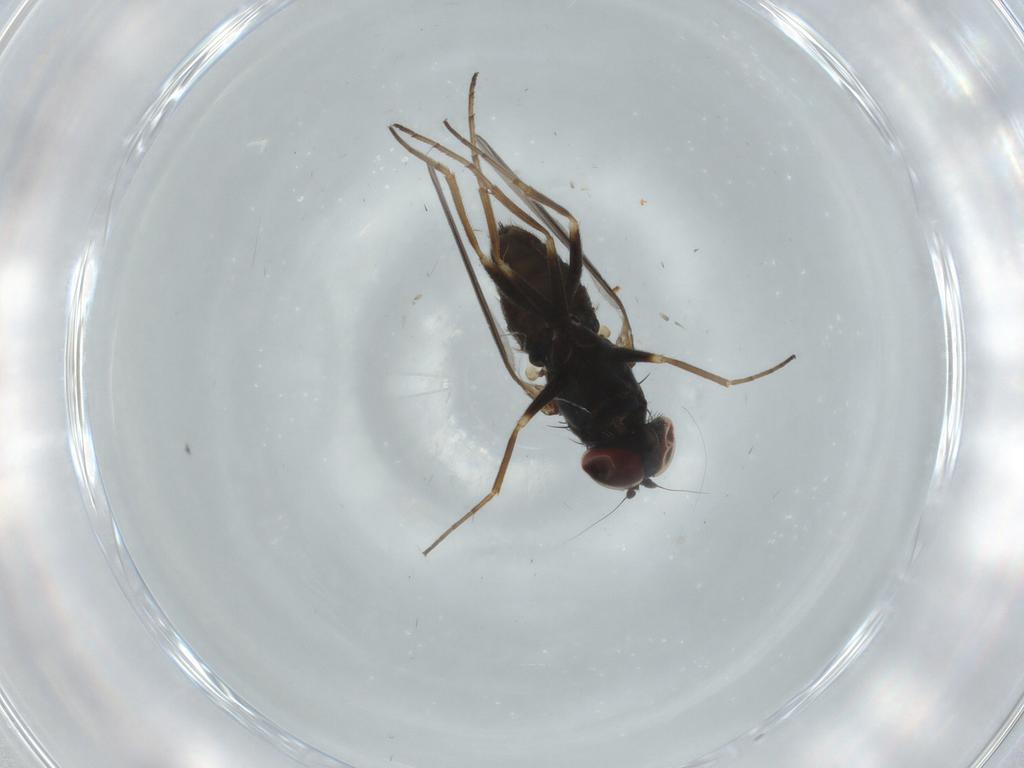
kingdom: Animalia
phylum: Arthropoda
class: Insecta
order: Diptera
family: Dolichopodidae
